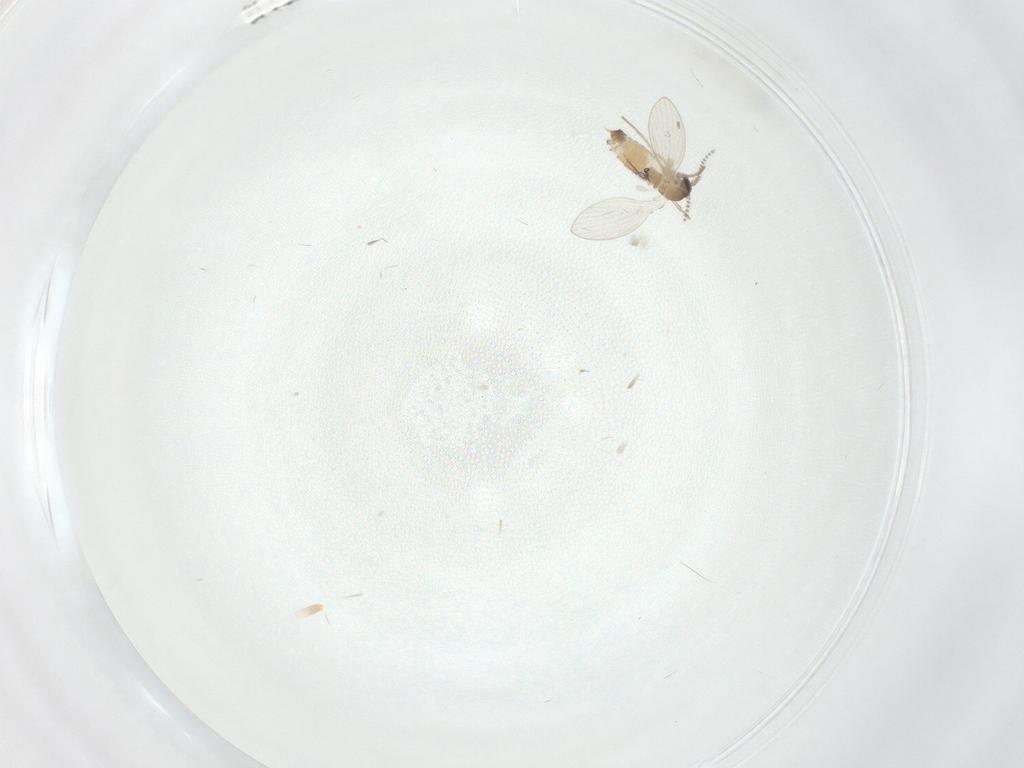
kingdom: Animalia
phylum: Arthropoda
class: Insecta
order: Diptera
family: Psychodidae
